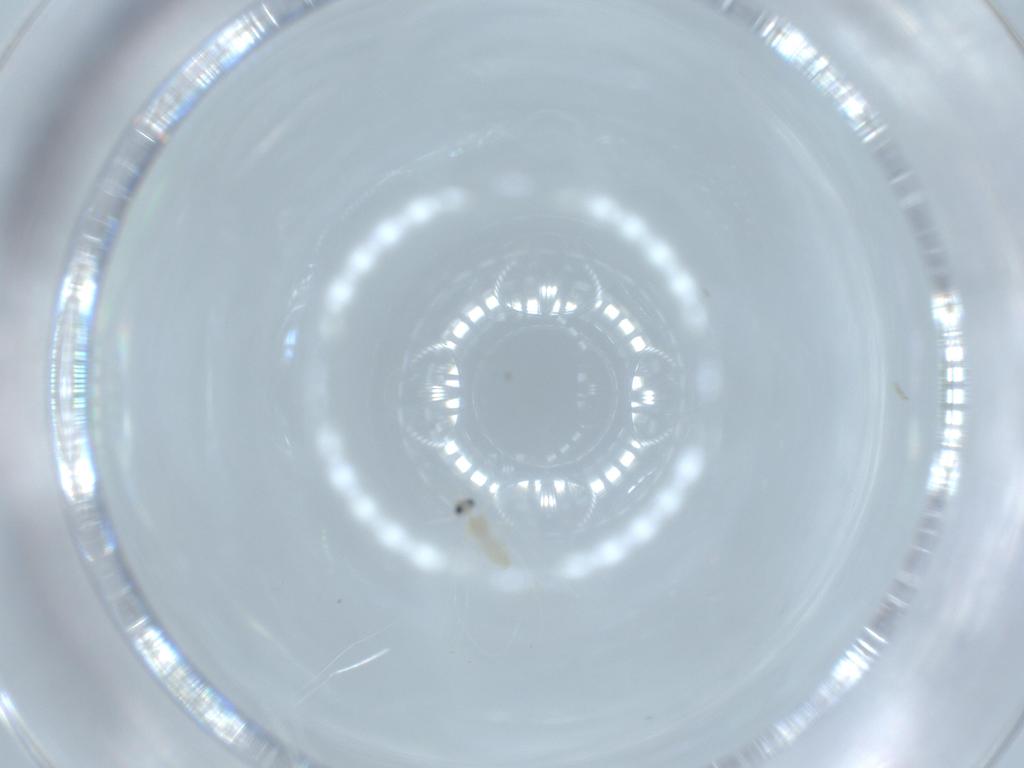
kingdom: Animalia
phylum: Arthropoda
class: Insecta
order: Diptera
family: Cecidomyiidae
